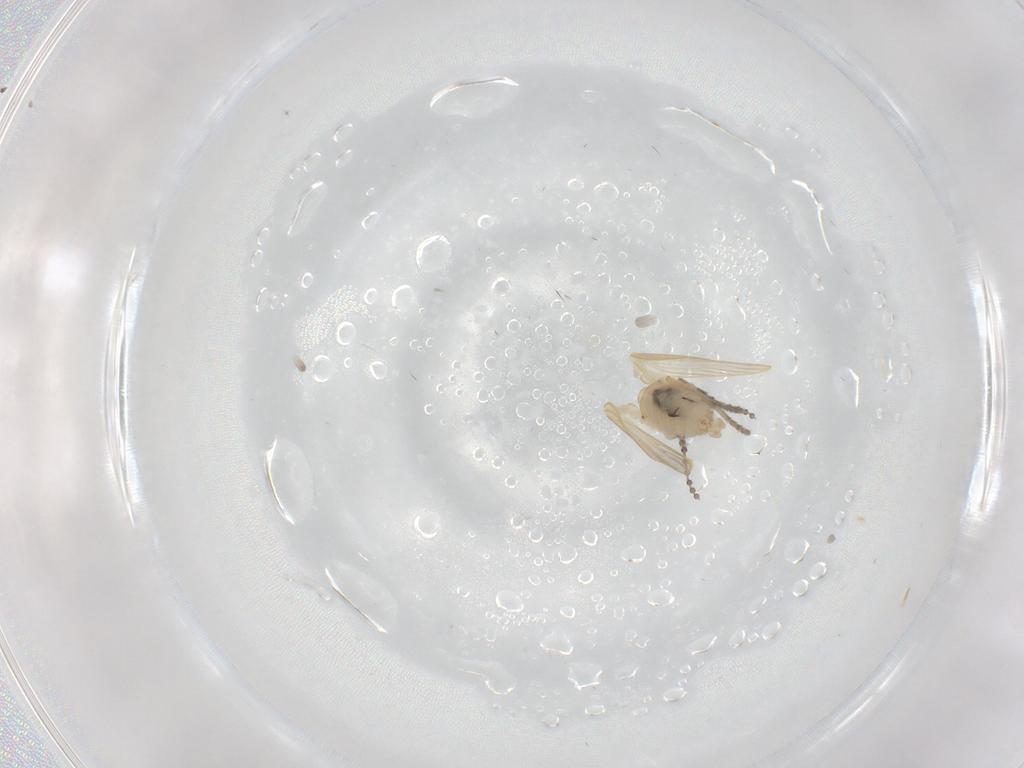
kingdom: Animalia
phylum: Arthropoda
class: Insecta
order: Diptera
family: Psychodidae
